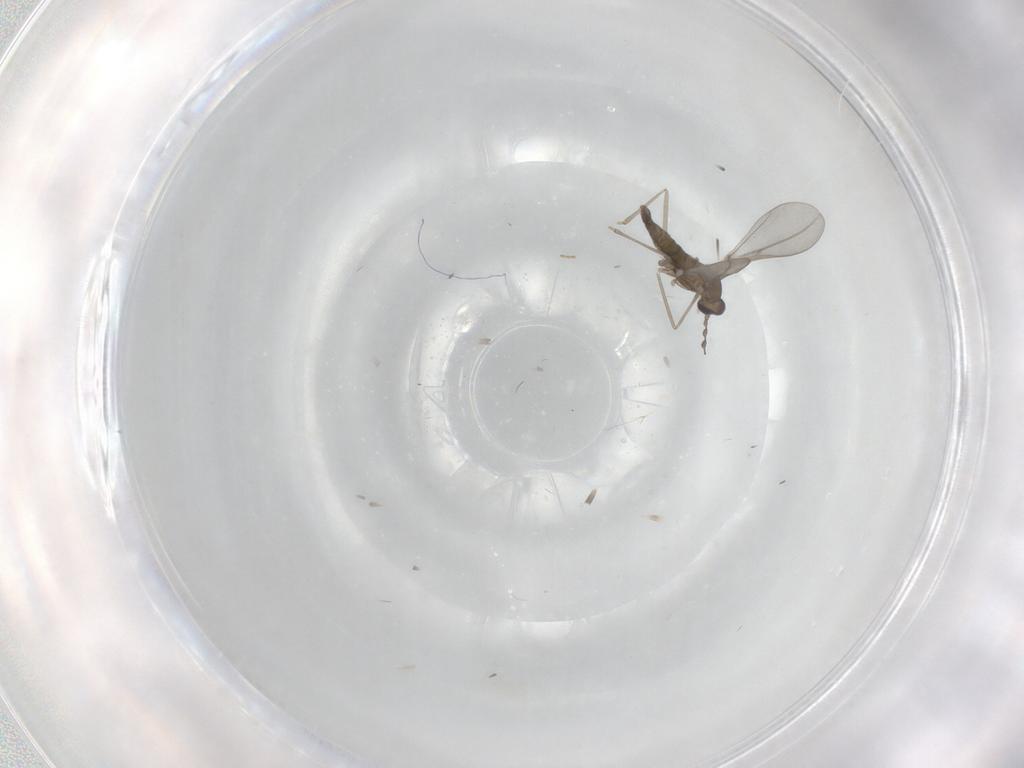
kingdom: Animalia
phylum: Arthropoda
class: Insecta
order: Diptera
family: Cecidomyiidae
